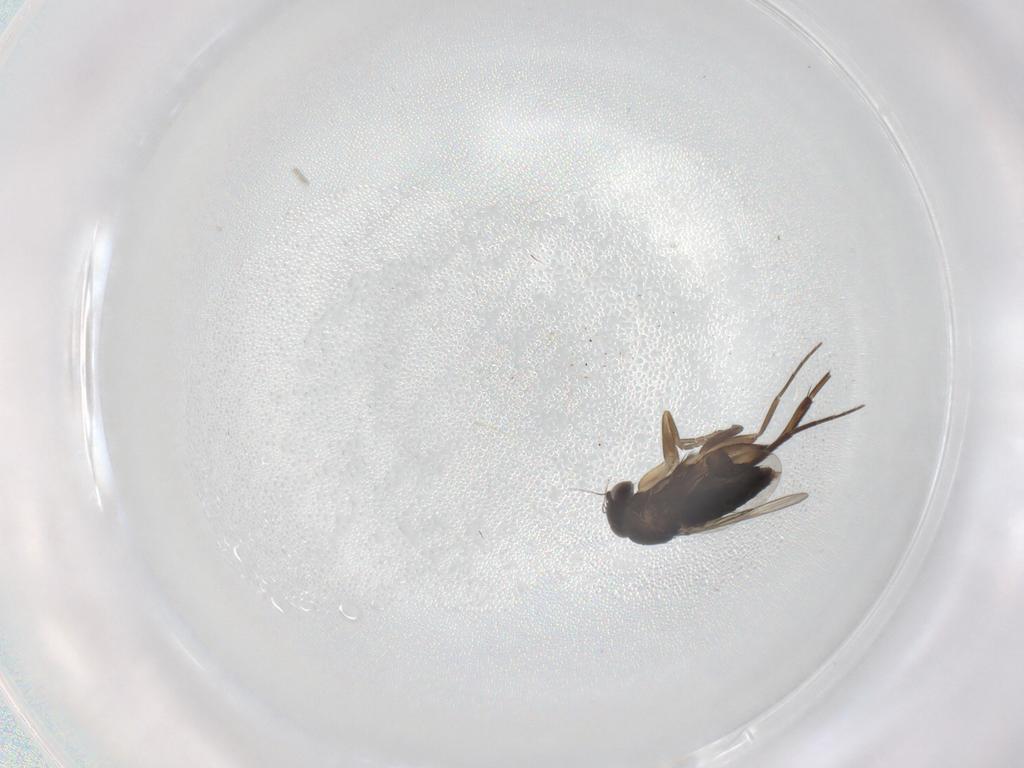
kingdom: Animalia
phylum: Arthropoda
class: Insecta
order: Diptera
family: Phoridae
